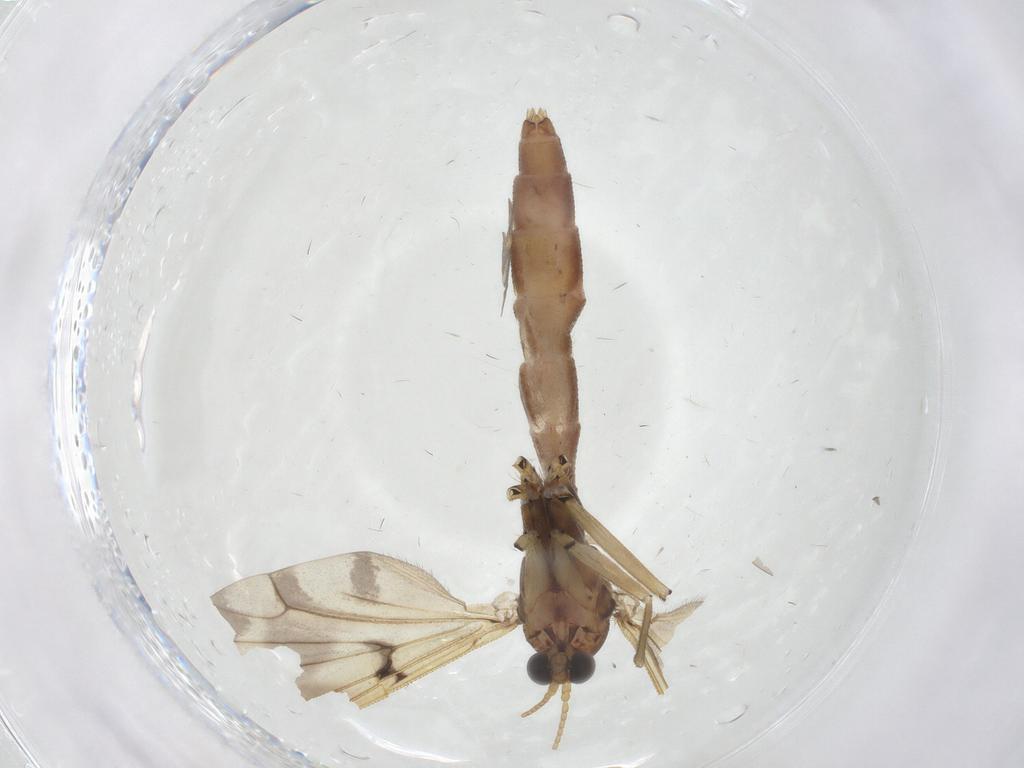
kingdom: Animalia
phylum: Arthropoda
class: Insecta
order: Diptera
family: Mycetophilidae
